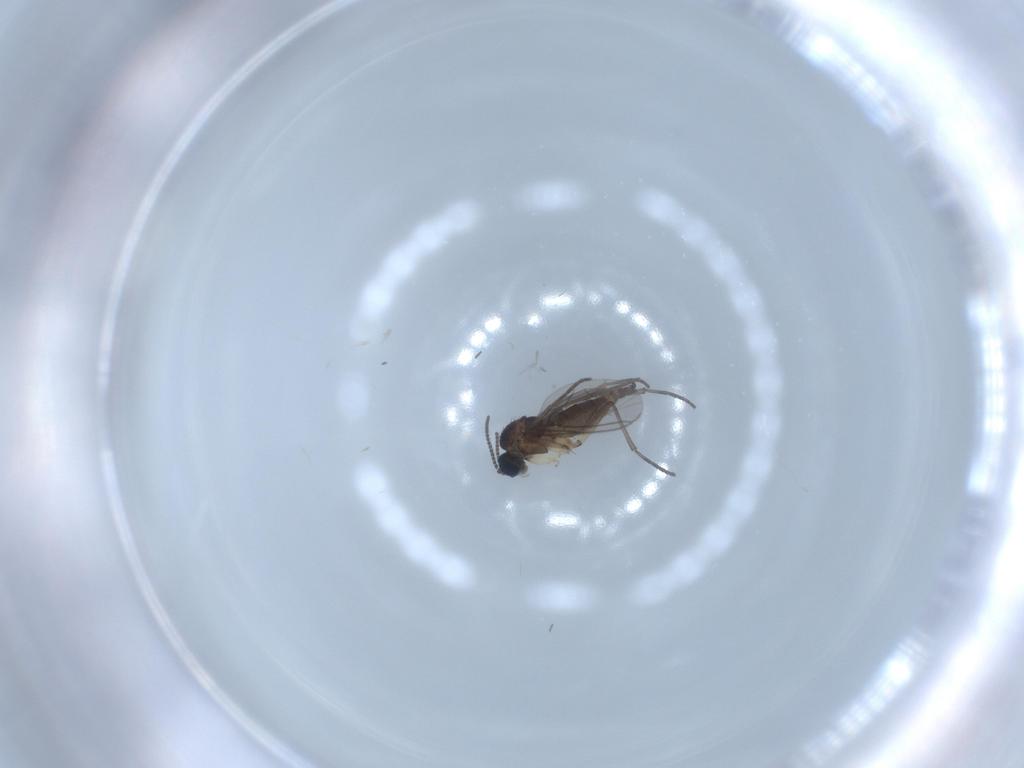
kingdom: Animalia
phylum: Arthropoda
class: Insecta
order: Diptera
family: Sciaridae
